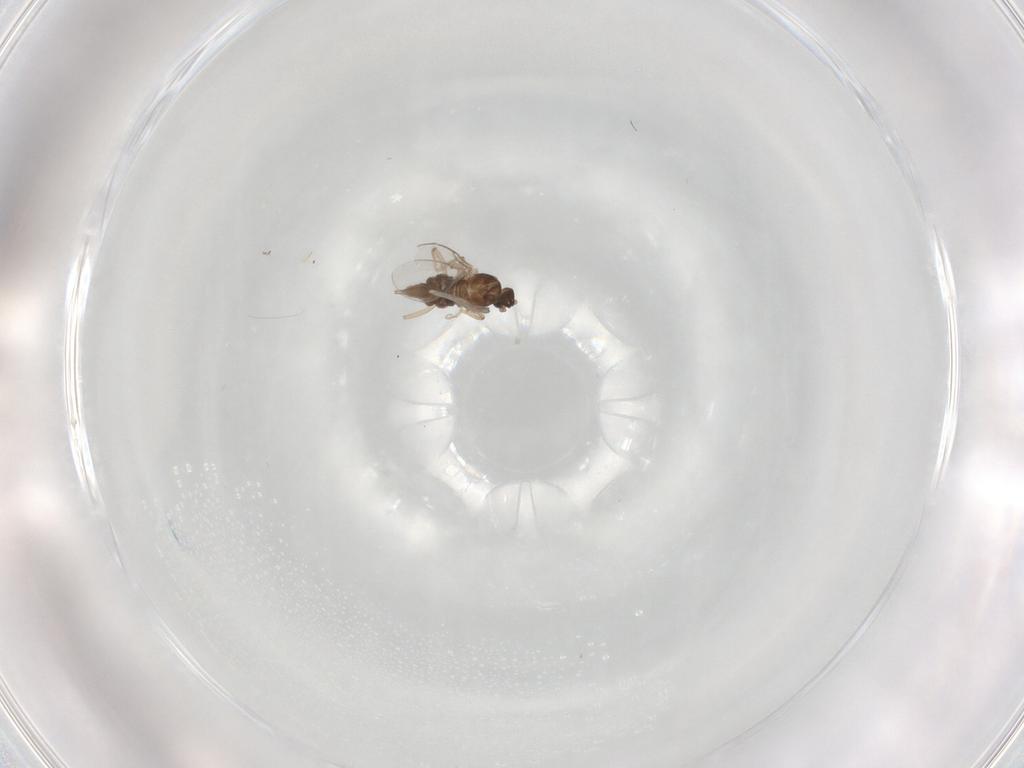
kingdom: Animalia
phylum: Arthropoda
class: Insecta
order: Diptera
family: Cecidomyiidae
